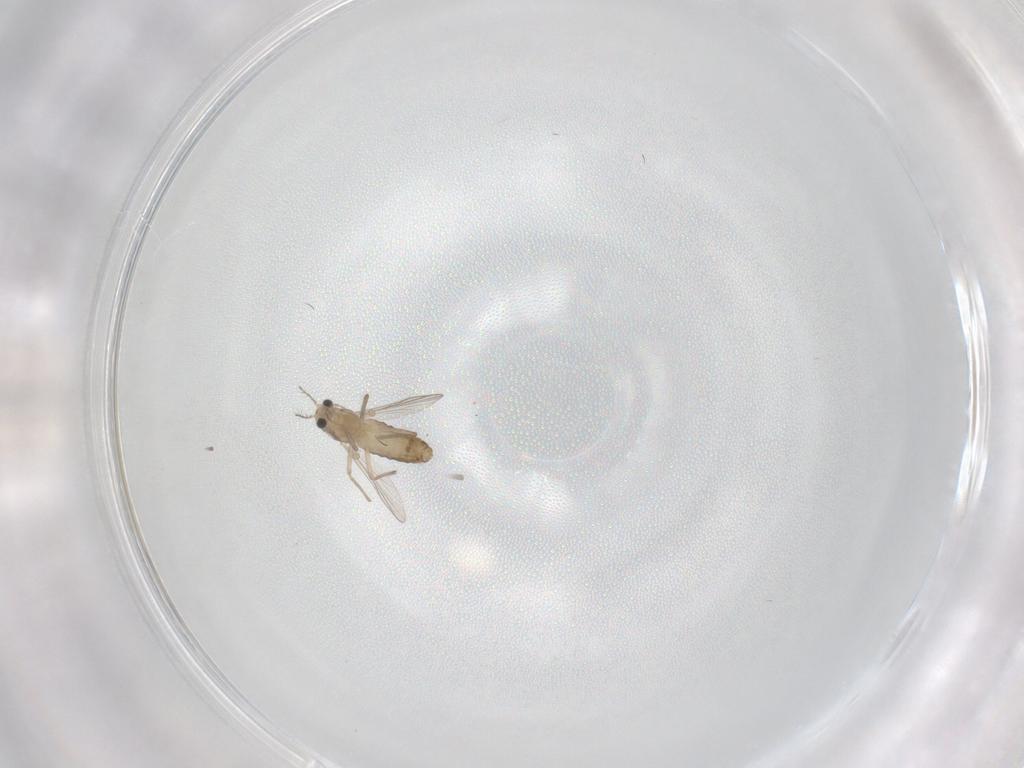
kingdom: Animalia
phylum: Arthropoda
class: Insecta
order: Diptera
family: Chironomidae
